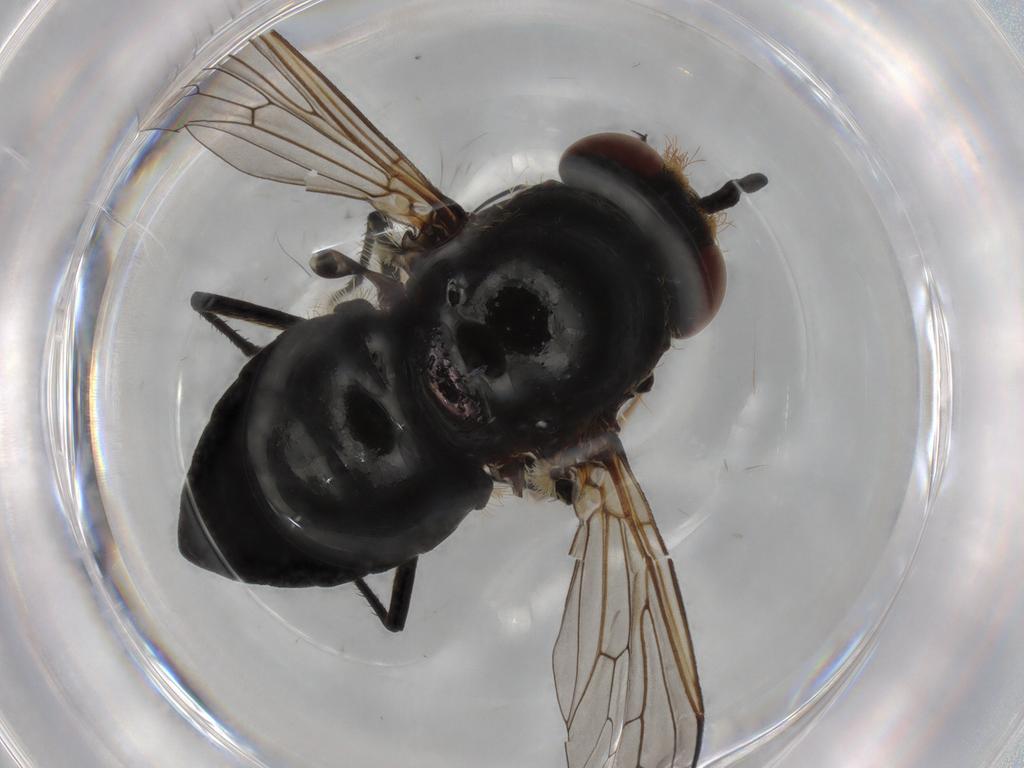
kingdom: Animalia
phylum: Arthropoda
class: Insecta
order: Diptera
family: Bombyliidae
